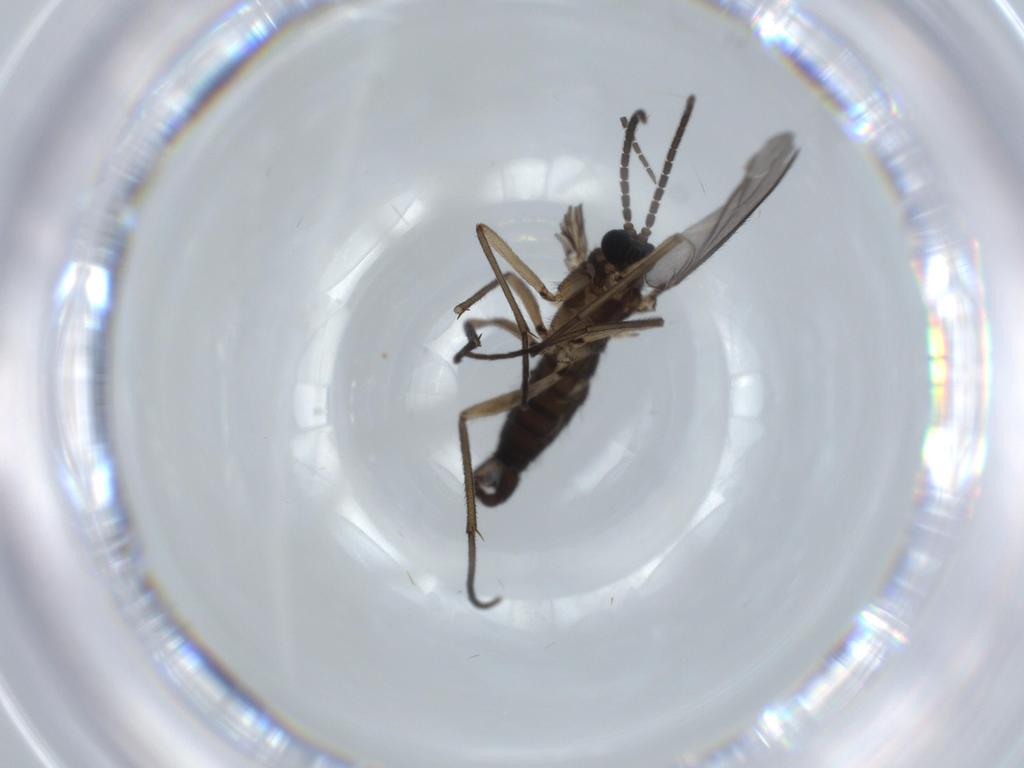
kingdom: Animalia
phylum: Arthropoda
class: Insecta
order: Diptera
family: Sciaridae
